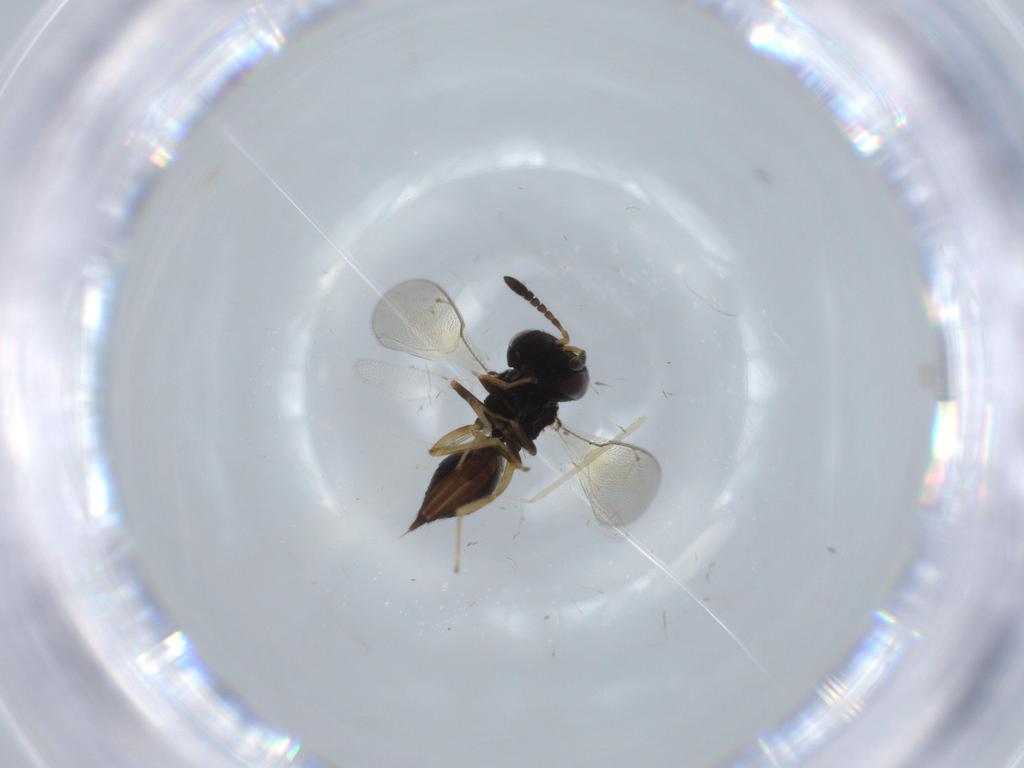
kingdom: Animalia
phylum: Arthropoda
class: Insecta
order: Hymenoptera
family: Pteromalidae
